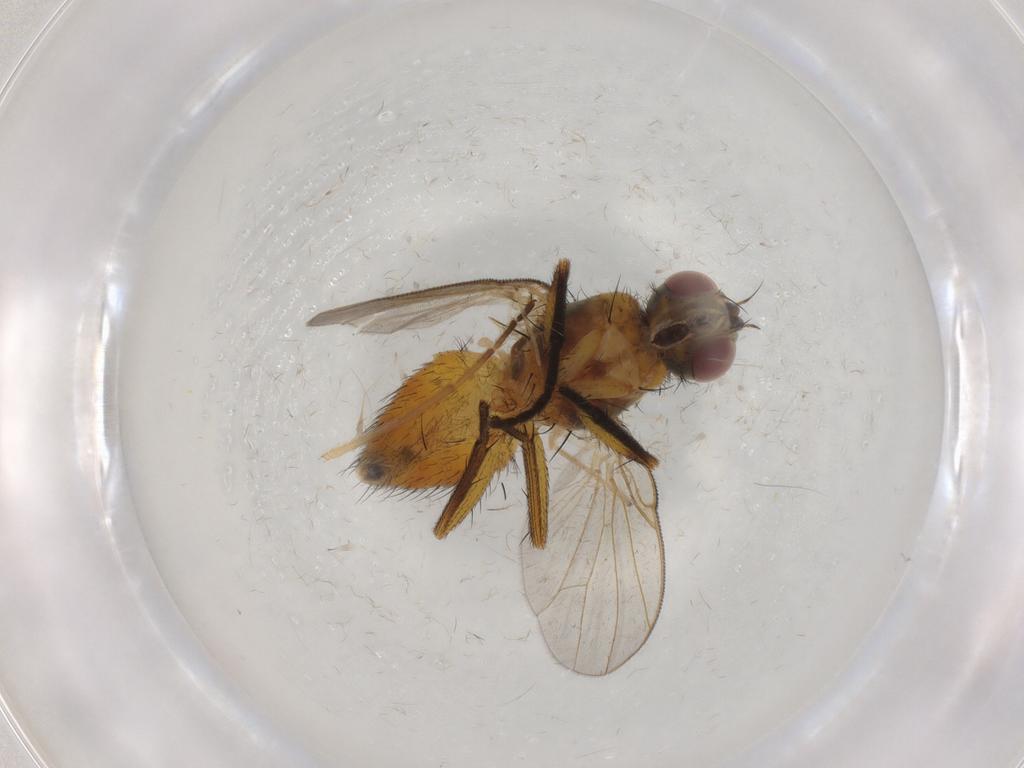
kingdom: Animalia
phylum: Arthropoda
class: Insecta
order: Diptera
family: Muscidae
